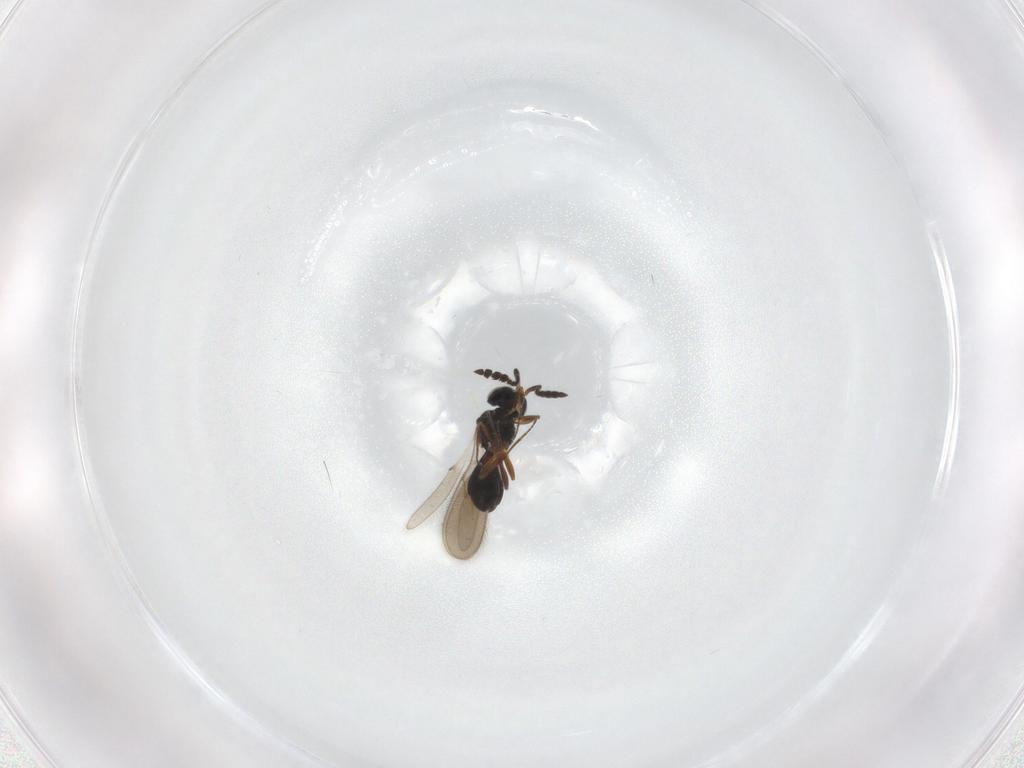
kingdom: Animalia
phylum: Arthropoda
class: Insecta
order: Hymenoptera
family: Scelionidae
